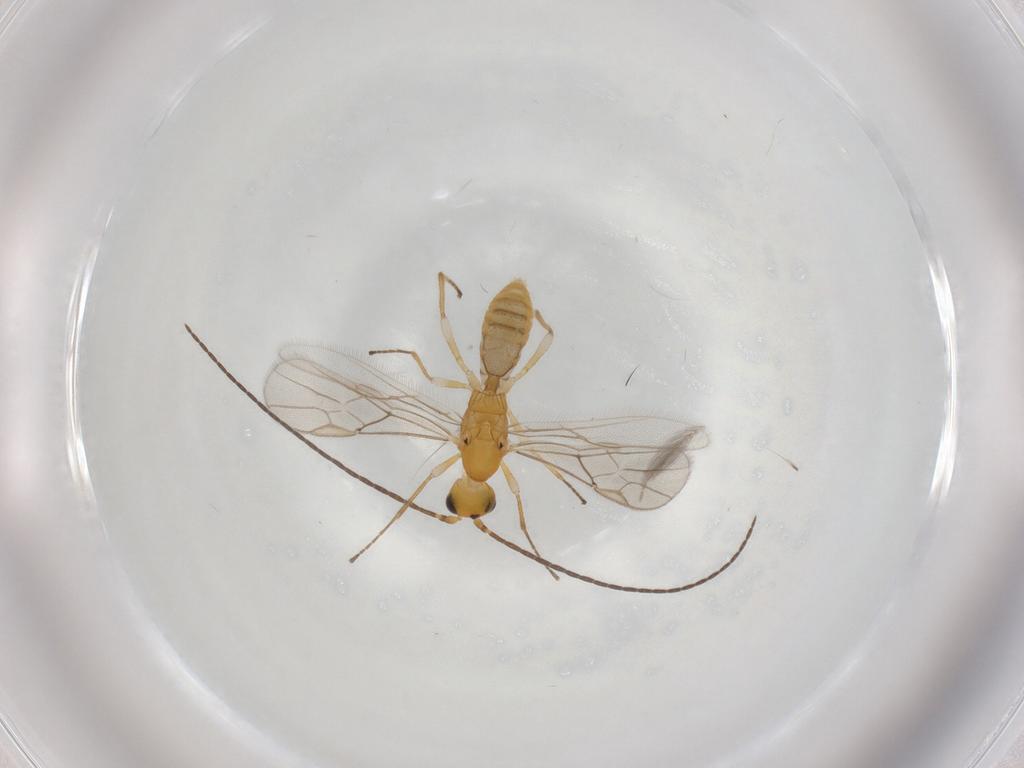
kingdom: Animalia
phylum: Arthropoda
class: Insecta
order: Hymenoptera
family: Braconidae
